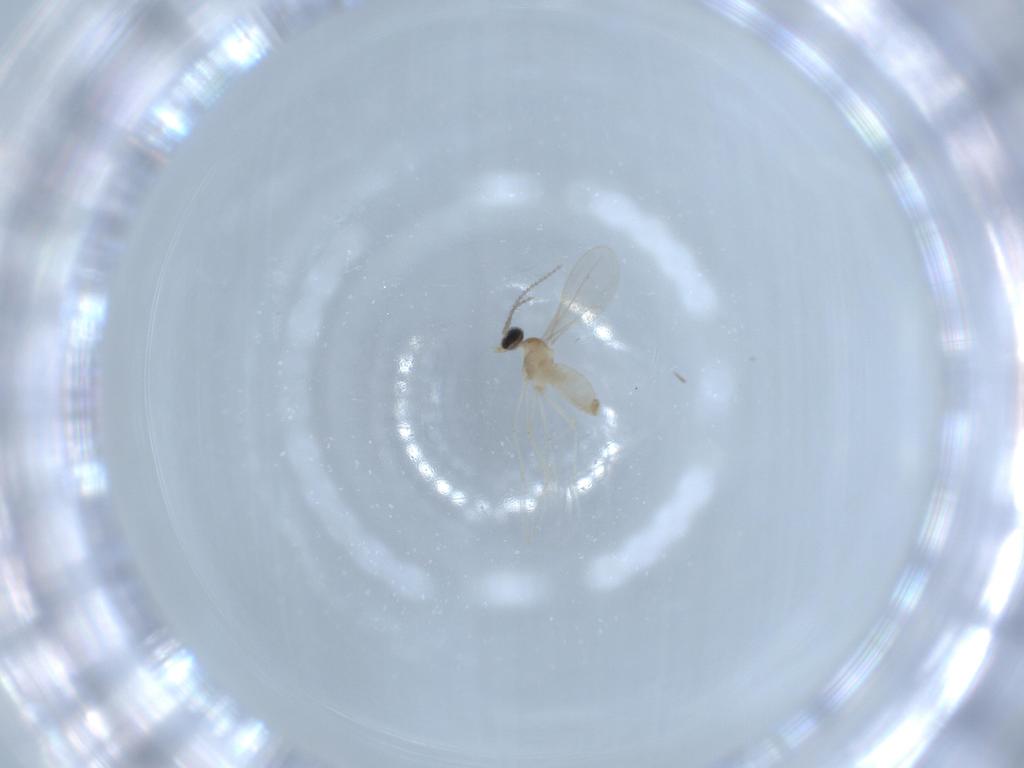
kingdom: Animalia
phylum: Arthropoda
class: Insecta
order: Diptera
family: Cecidomyiidae
